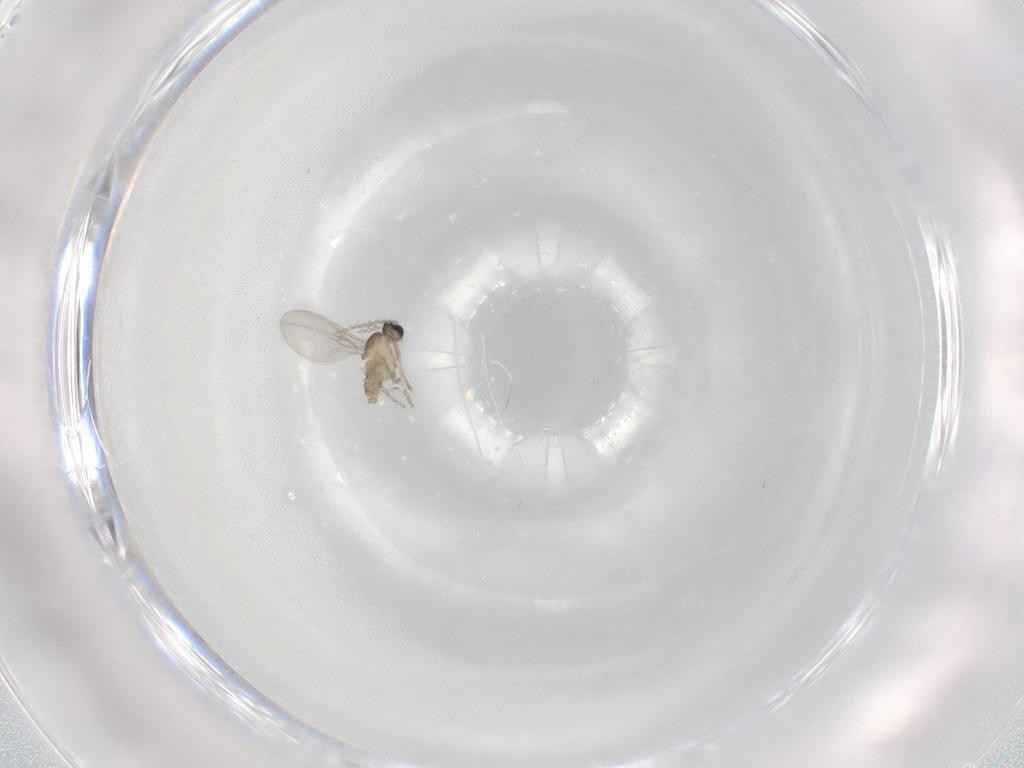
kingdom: Animalia
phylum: Arthropoda
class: Insecta
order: Diptera
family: Cecidomyiidae
